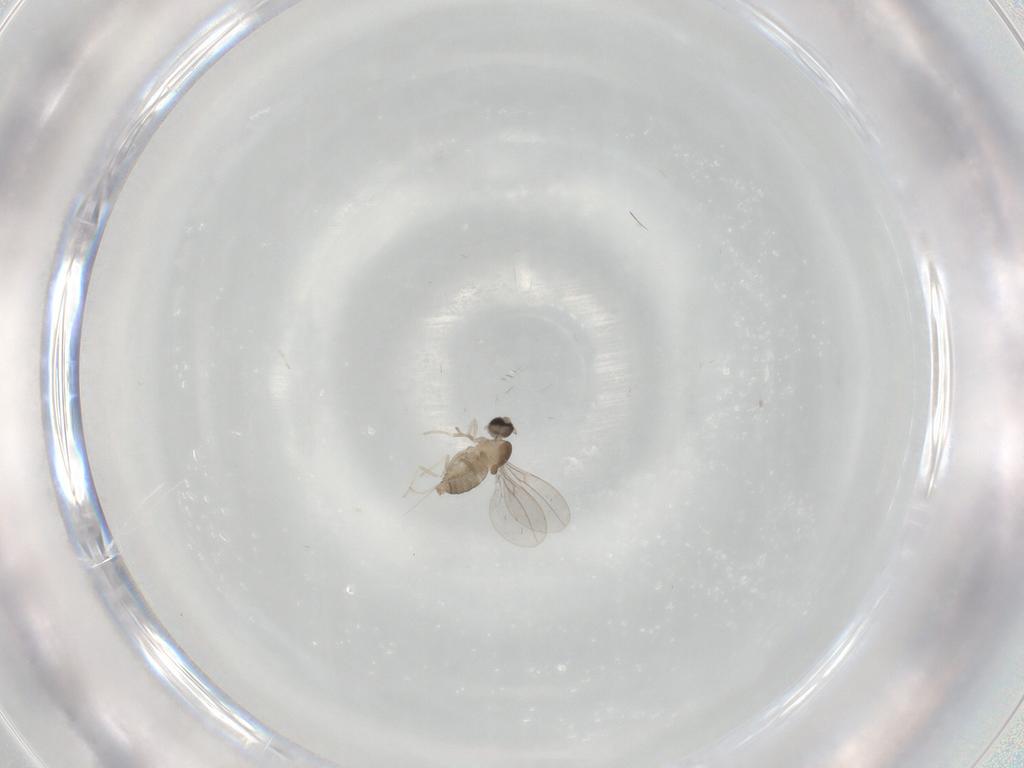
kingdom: Animalia
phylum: Arthropoda
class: Insecta
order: Diptera
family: Cecidomyiidae
